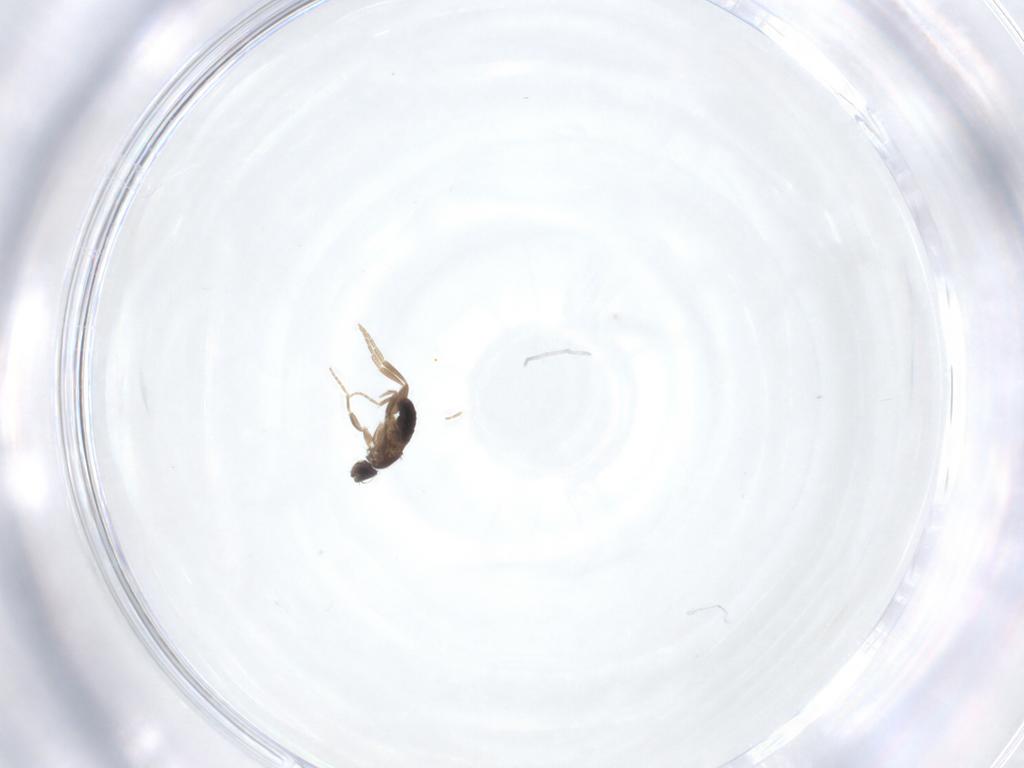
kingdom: Animalia
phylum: Arthropoda
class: Insecta
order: Diptera
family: Phoridae
